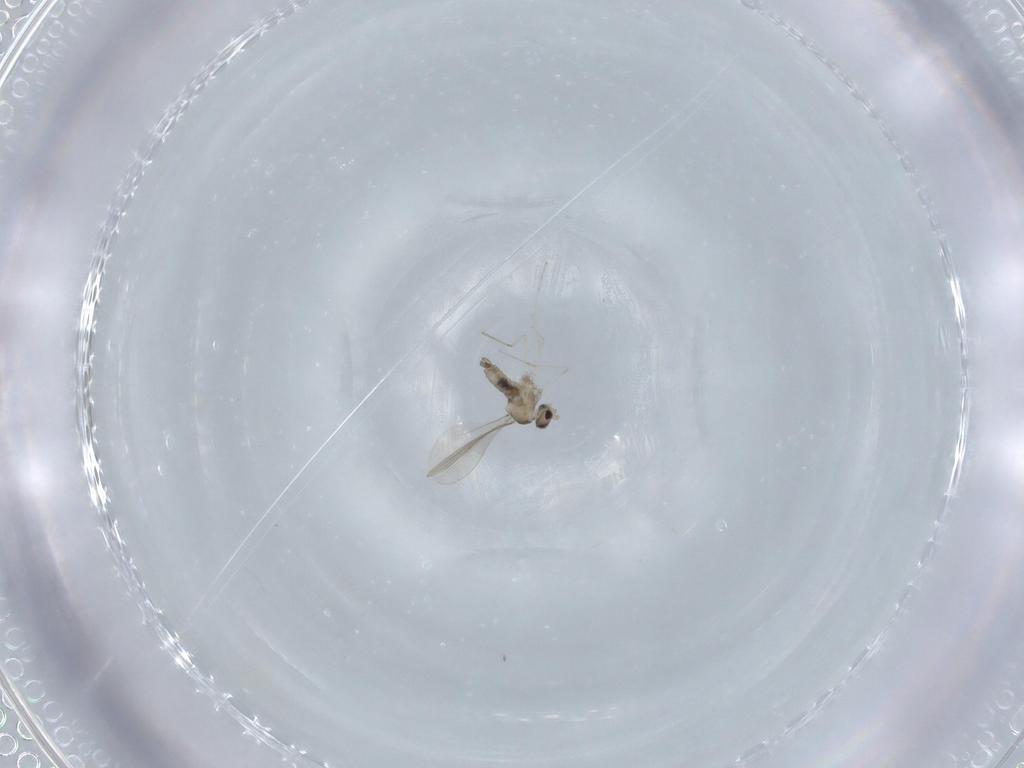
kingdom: Animalia
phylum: Arthropoda
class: Insecta
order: Diptera
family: Cecidomyiidae
